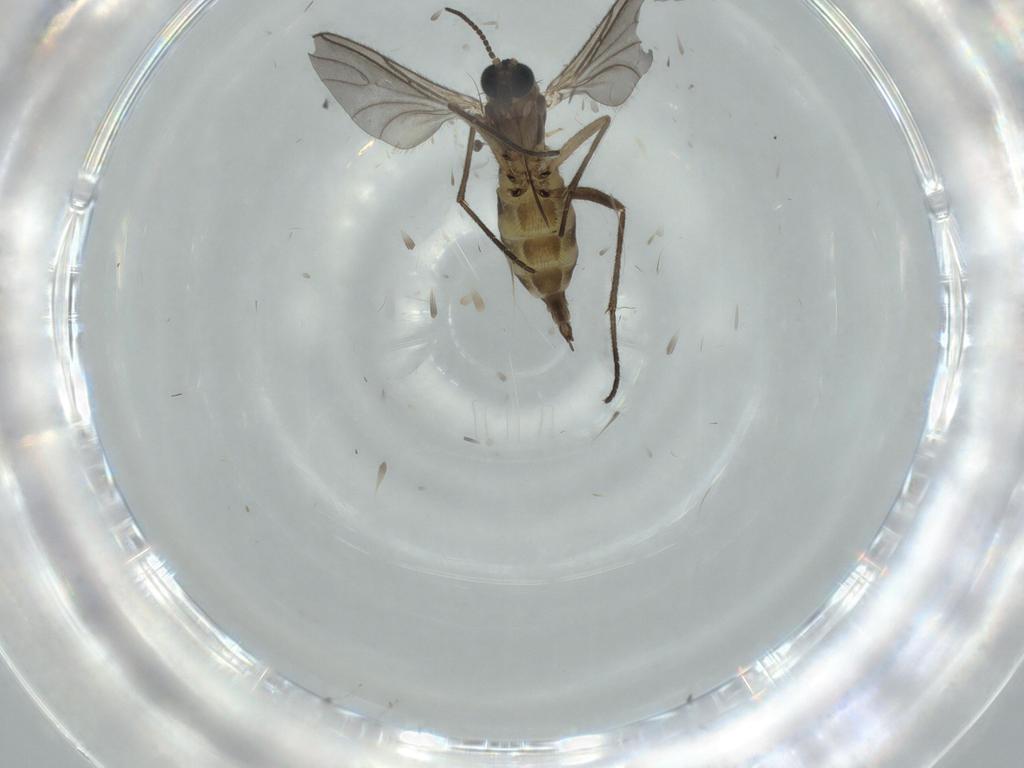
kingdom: Animalia
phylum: Arthropoda
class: Insecta
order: Diptera
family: Sciaridae
